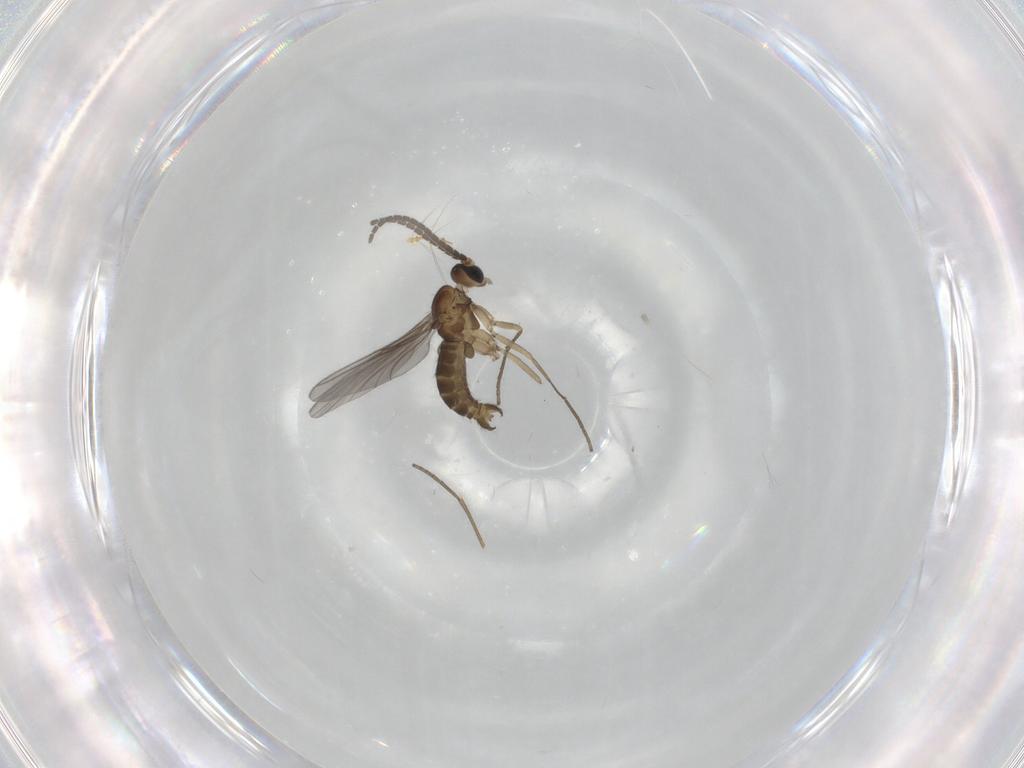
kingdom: Animalia
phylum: Arthropoda
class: Insecta
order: Diptera
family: Sciaridae
